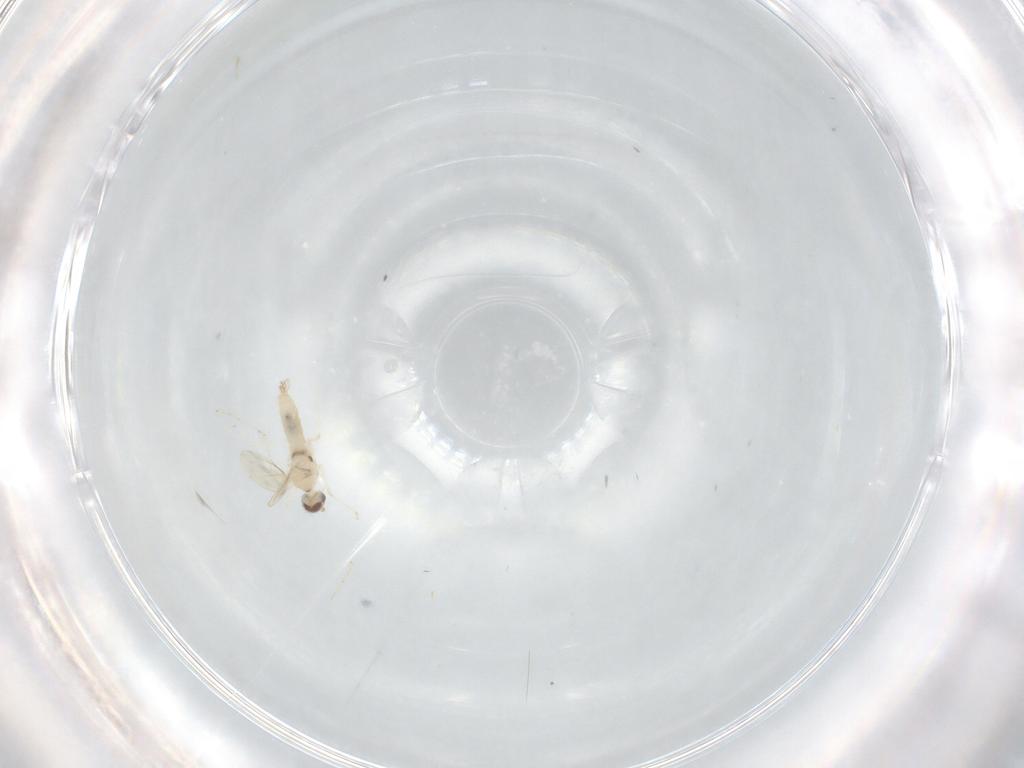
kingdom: Animalia
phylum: Arthropoda
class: Insecta
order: Diptera
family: Cecidomyiidae
